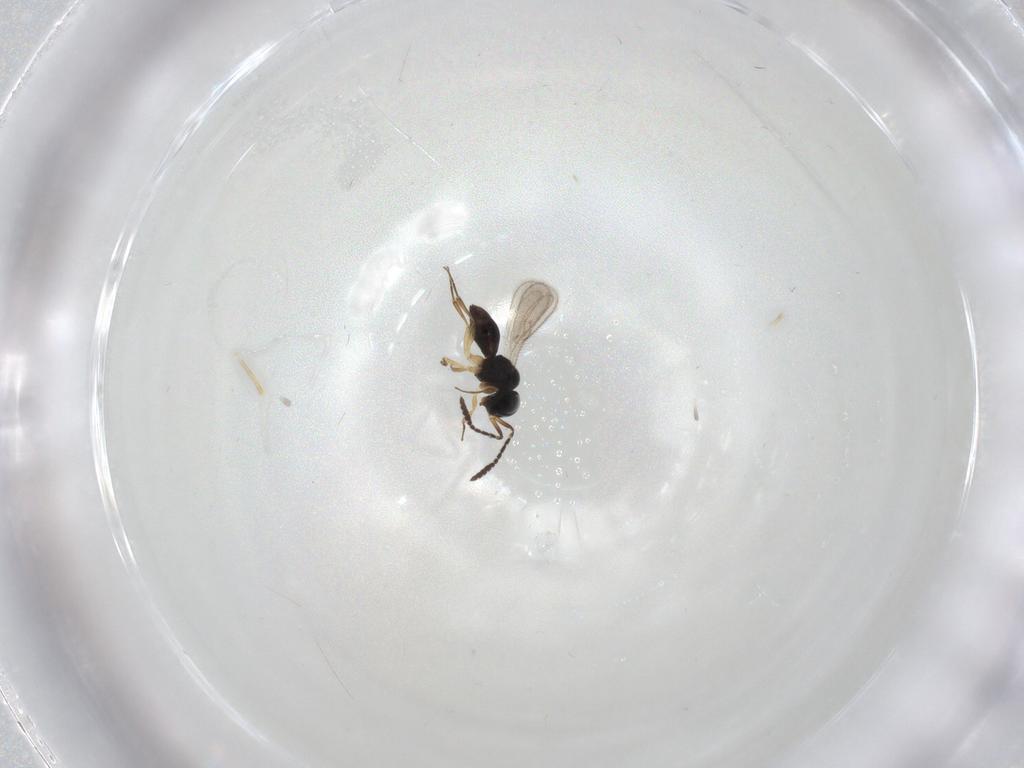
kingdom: Animalia
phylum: Arthropoda
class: Insecta
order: Hymenoptera
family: Scelionidae
